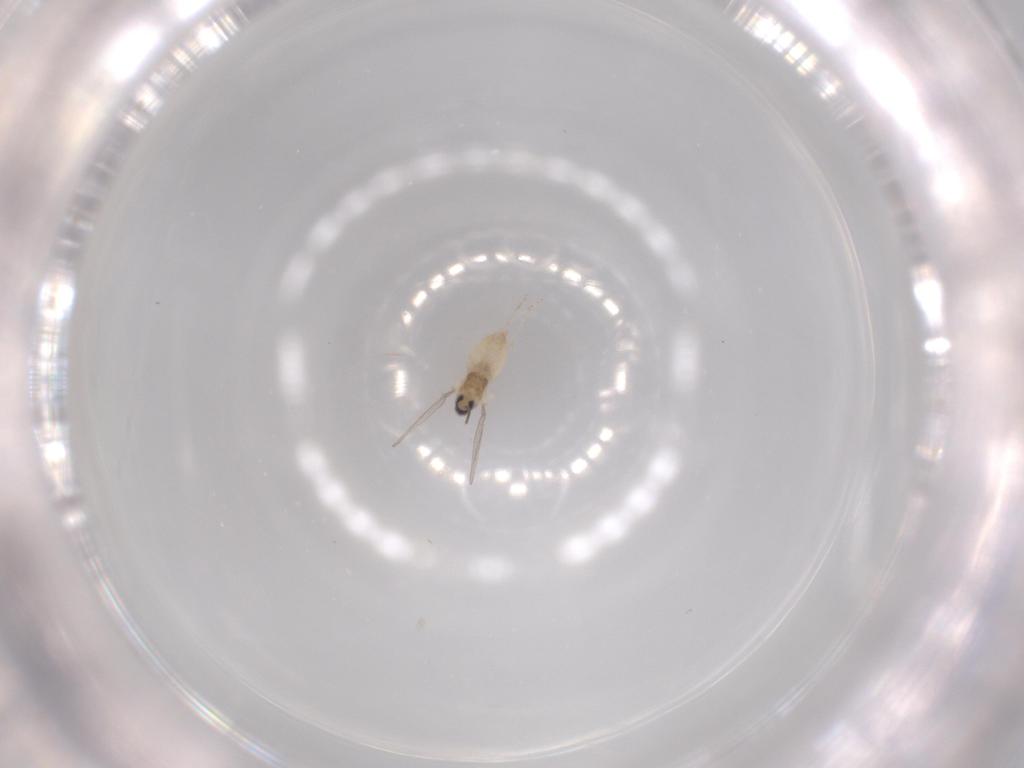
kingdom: Animalia
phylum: Arthropoda
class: Insecta
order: Diptera
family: Cecidomyiidae
